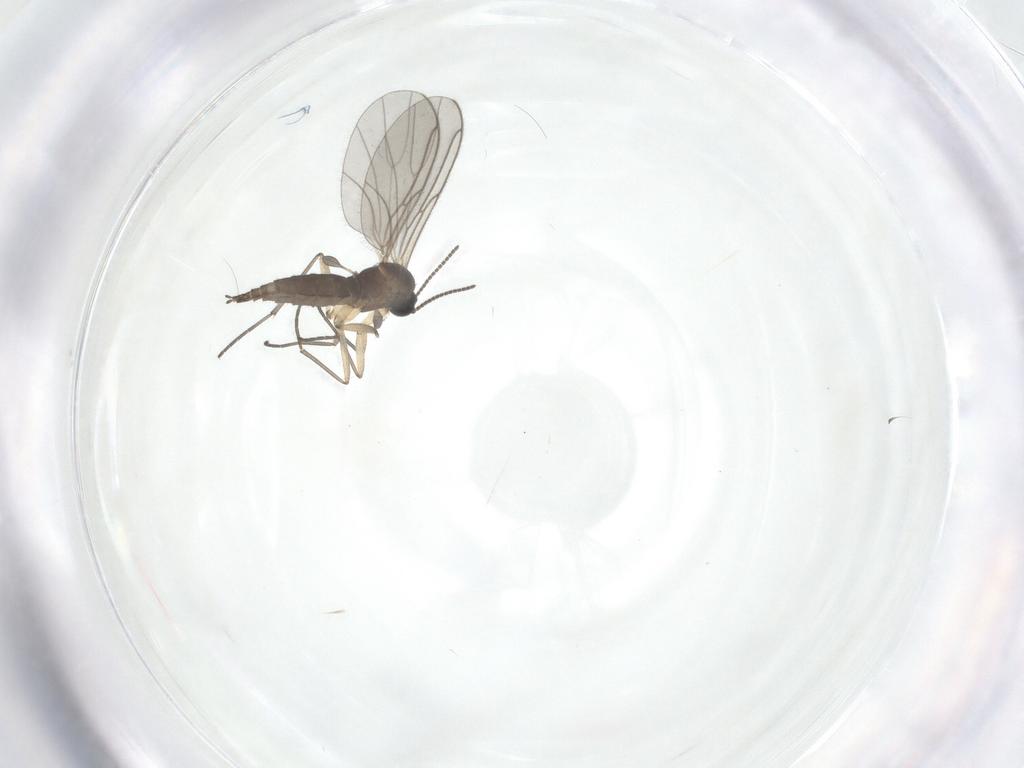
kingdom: Animalia
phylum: Arthropoda
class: Insecta
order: Diptera
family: Sciaridae
